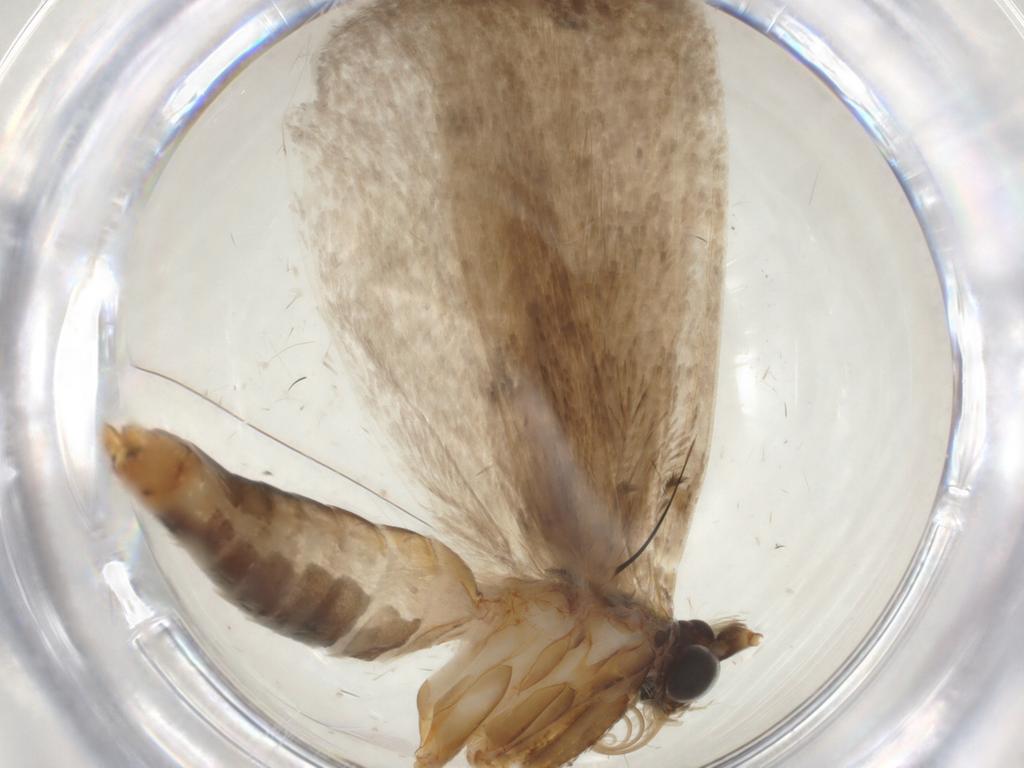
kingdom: Animalia
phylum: Arthropoda
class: Insecta
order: Lepidoptera
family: Adelidae
